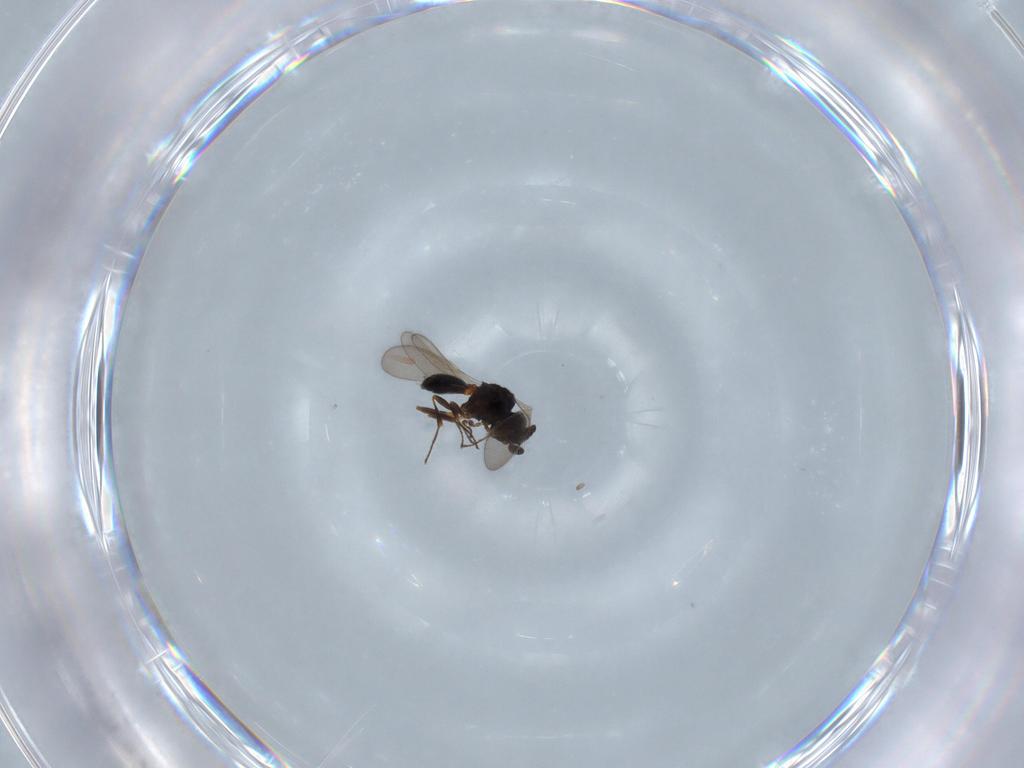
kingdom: Animalia
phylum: Arthropoda
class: Insecta
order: Hymenoptera
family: Scelionidae
